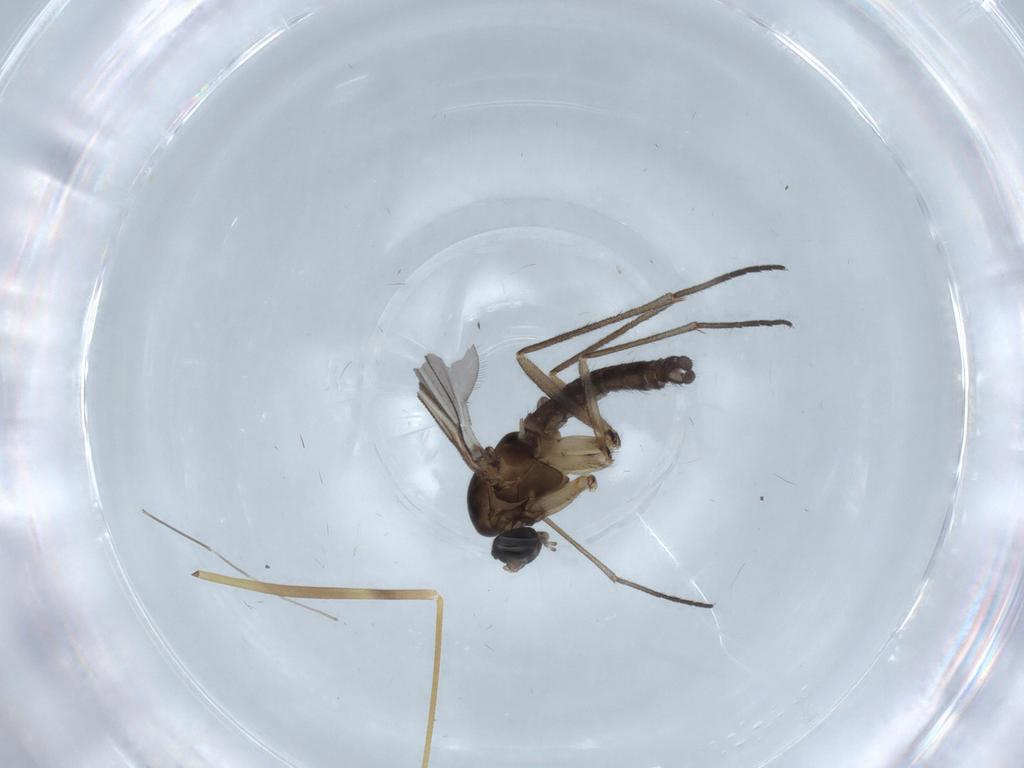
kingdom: Animalia
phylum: Arthropoda
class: Insecta
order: Diptera
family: Sciaridae
